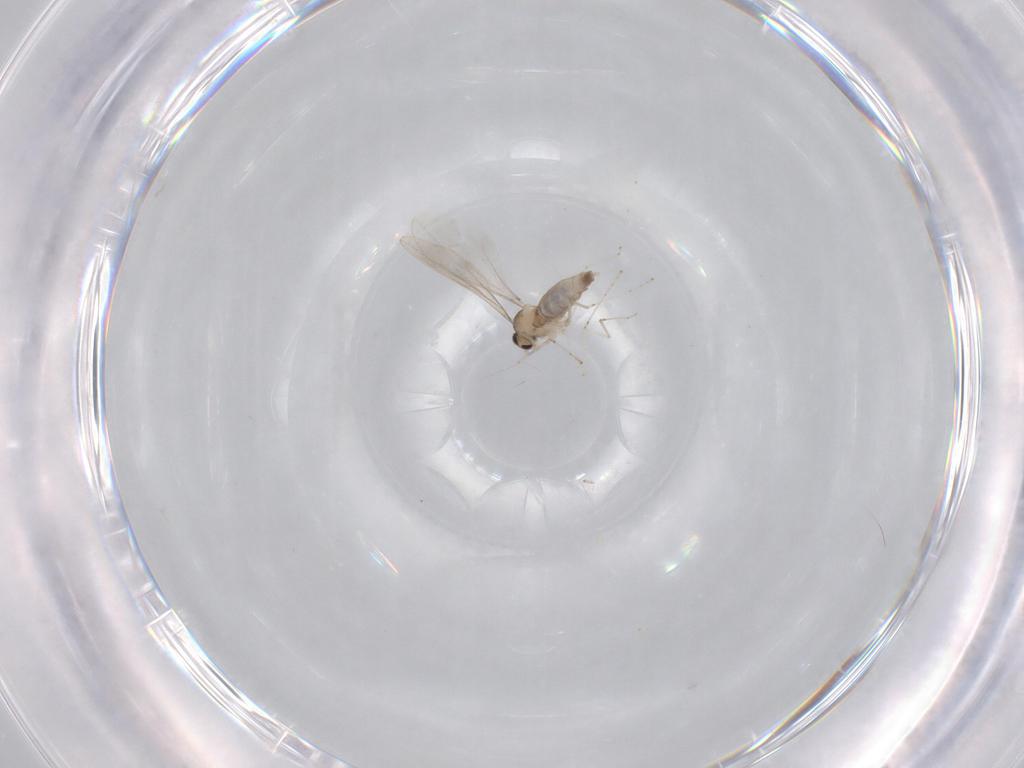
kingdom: Animalia
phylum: Arthropoda
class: Insecta
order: Diptera
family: Cecidomyiidae
